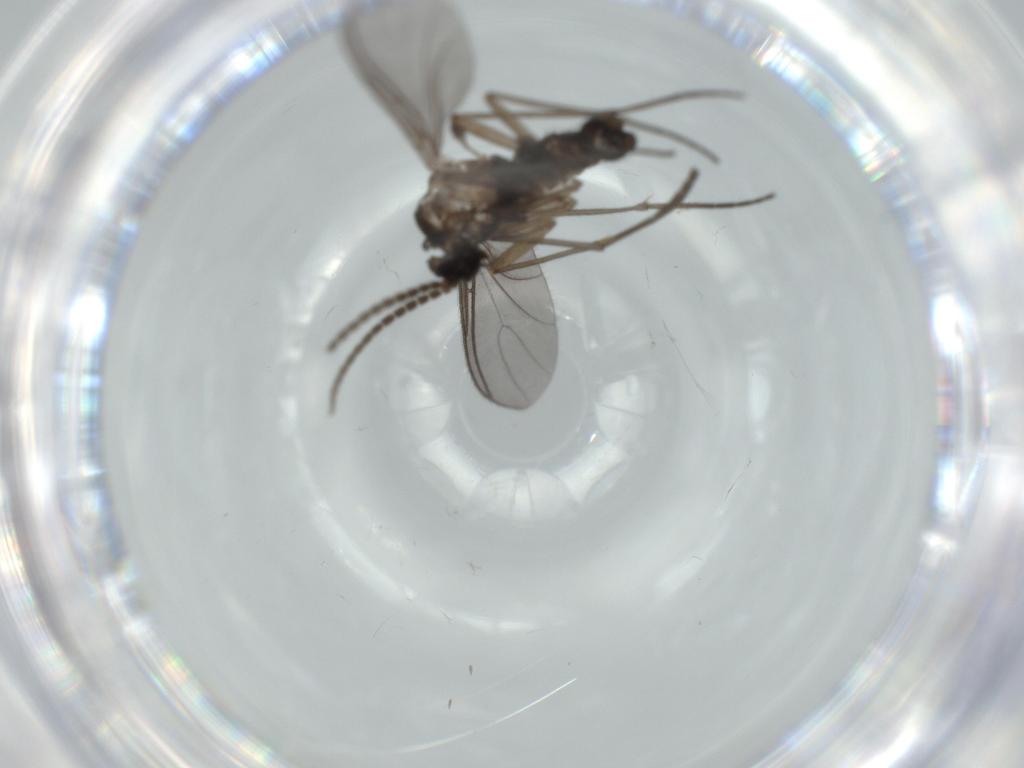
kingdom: Animalia
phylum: Arthropoda
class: Insecta
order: Diptera
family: Sciaridae
